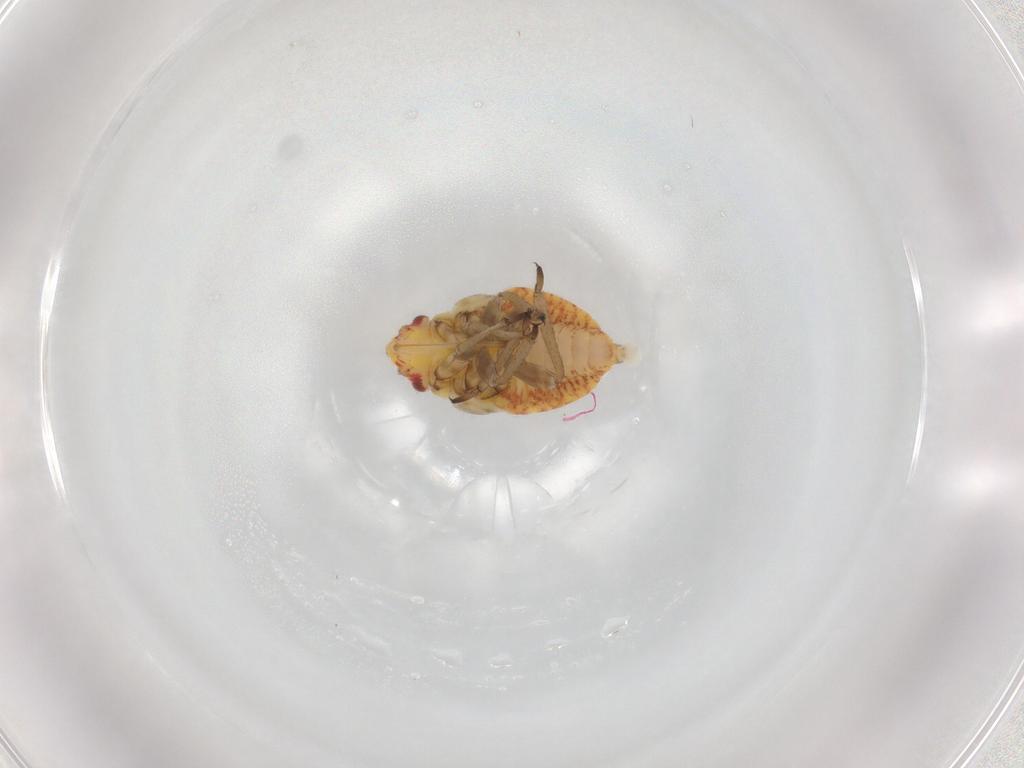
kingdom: Animalia
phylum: Arthropoda
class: Insecta
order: Hemiptera
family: Miridae
